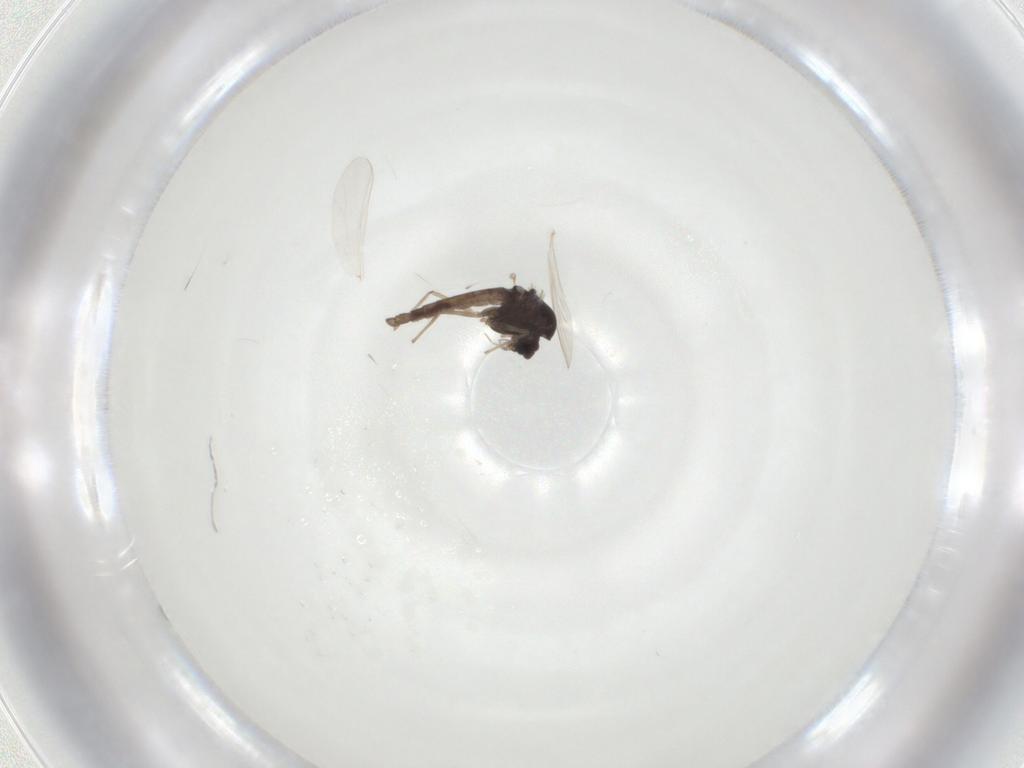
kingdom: Animalia
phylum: Arthropoda
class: Insecta
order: Diptera
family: Chironomidae
